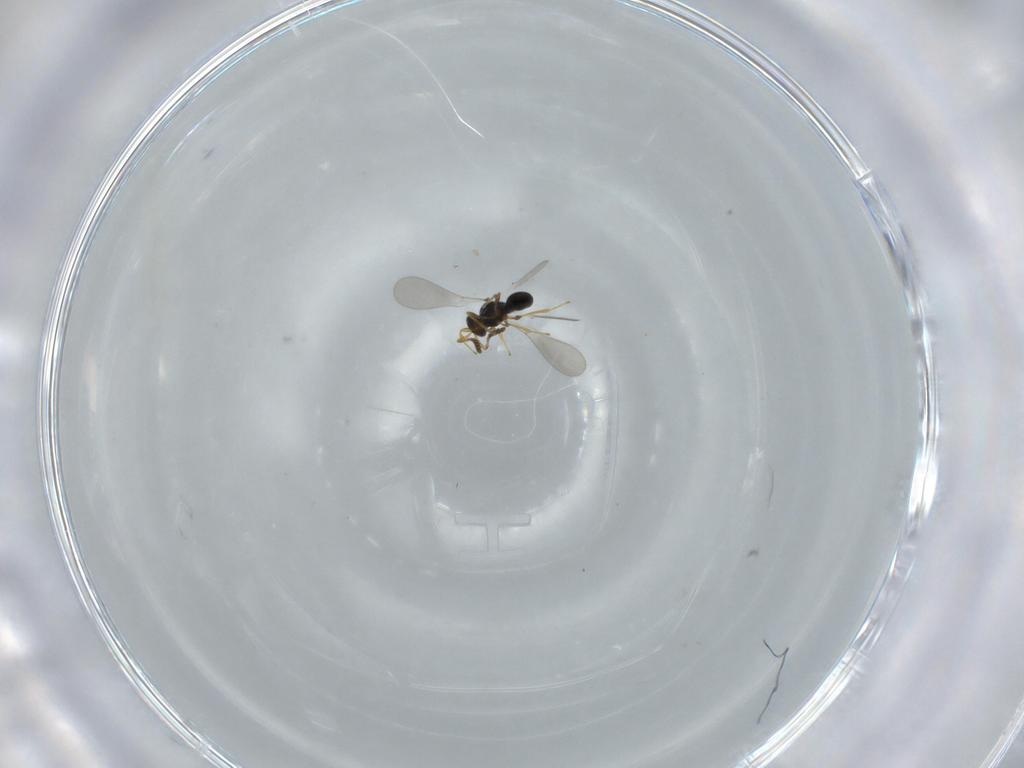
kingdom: Animalia
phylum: Arthropoda
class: Insecta
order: Hymenoptera
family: Platygastridae
